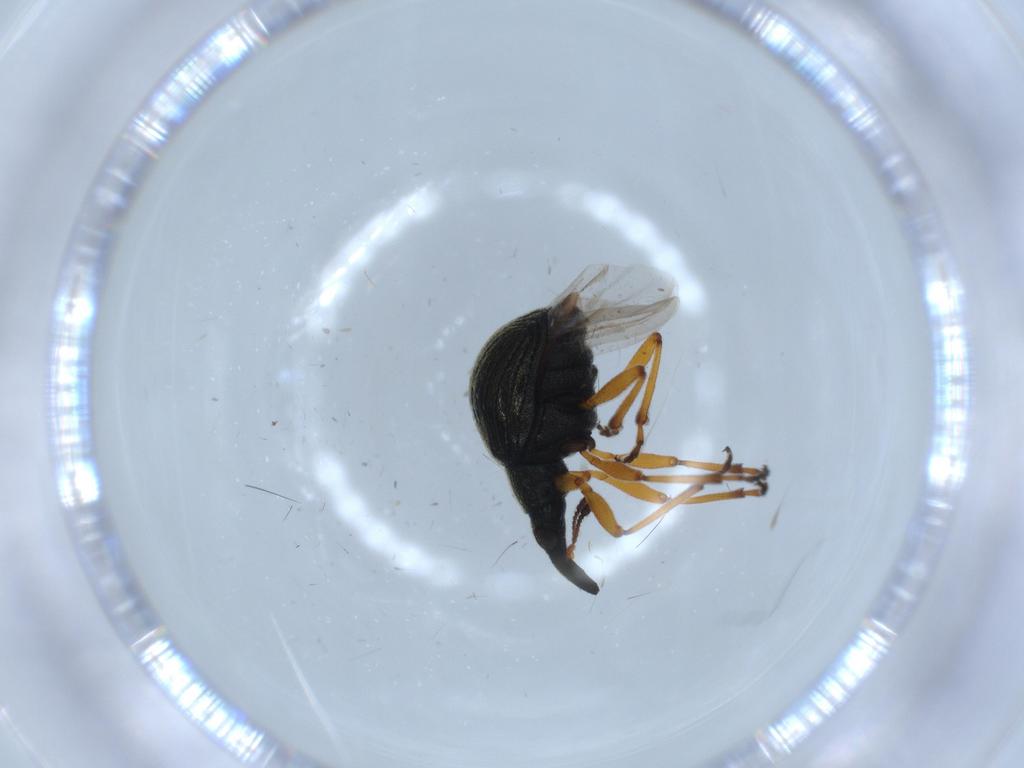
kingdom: Animalia
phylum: Arthropoda
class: Insecta
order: Coleoptera
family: Brentidae
